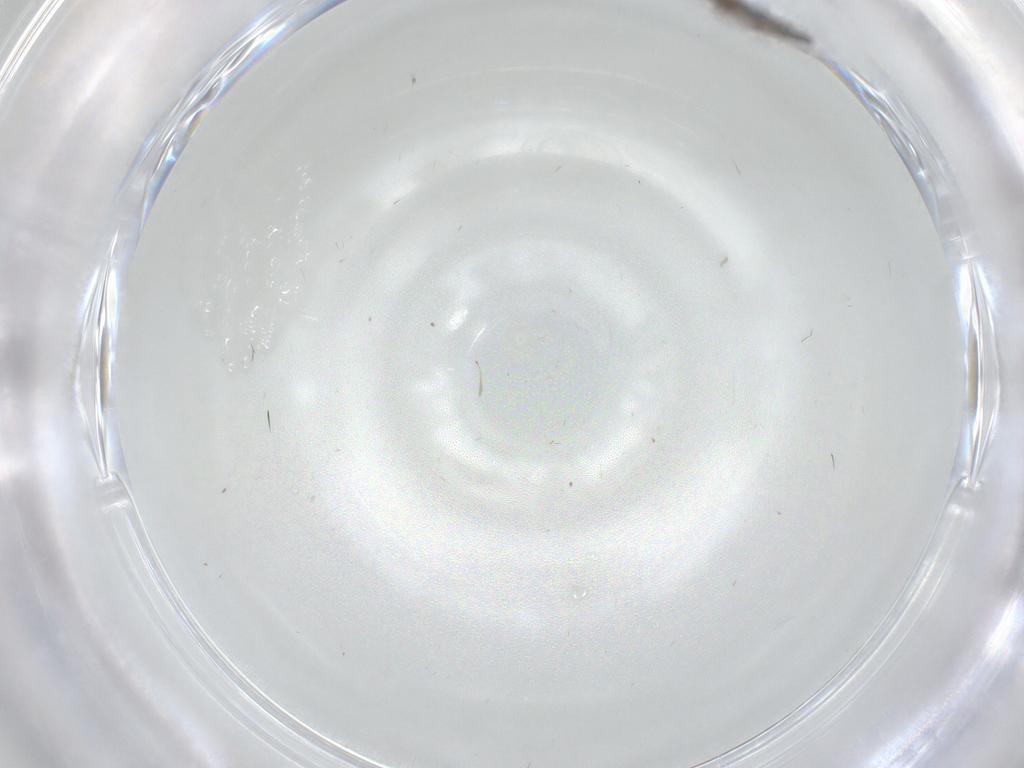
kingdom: Animalia
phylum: Arthropoda
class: Insecta
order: Diptera
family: Sciaridae
